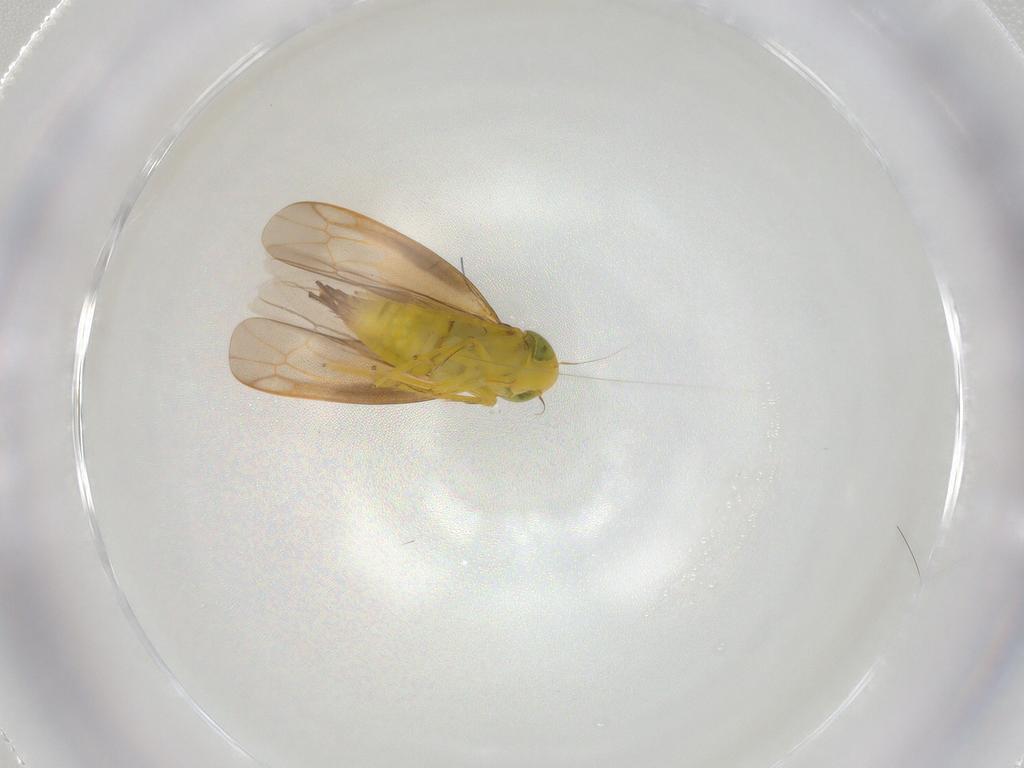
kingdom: Animalia
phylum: Arthropoda
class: Insecta
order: Hemiptera
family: Cicadellidae
